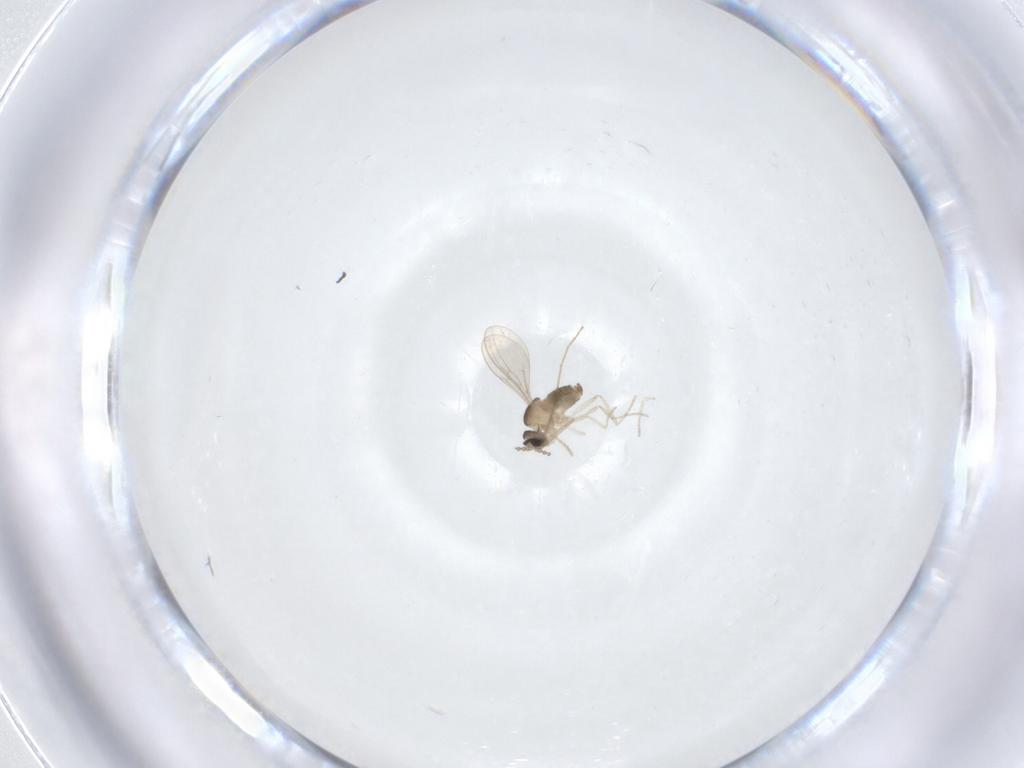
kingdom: Animalia
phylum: Arthropoda
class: Insecta
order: Diptera
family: Cecidomyiidae
